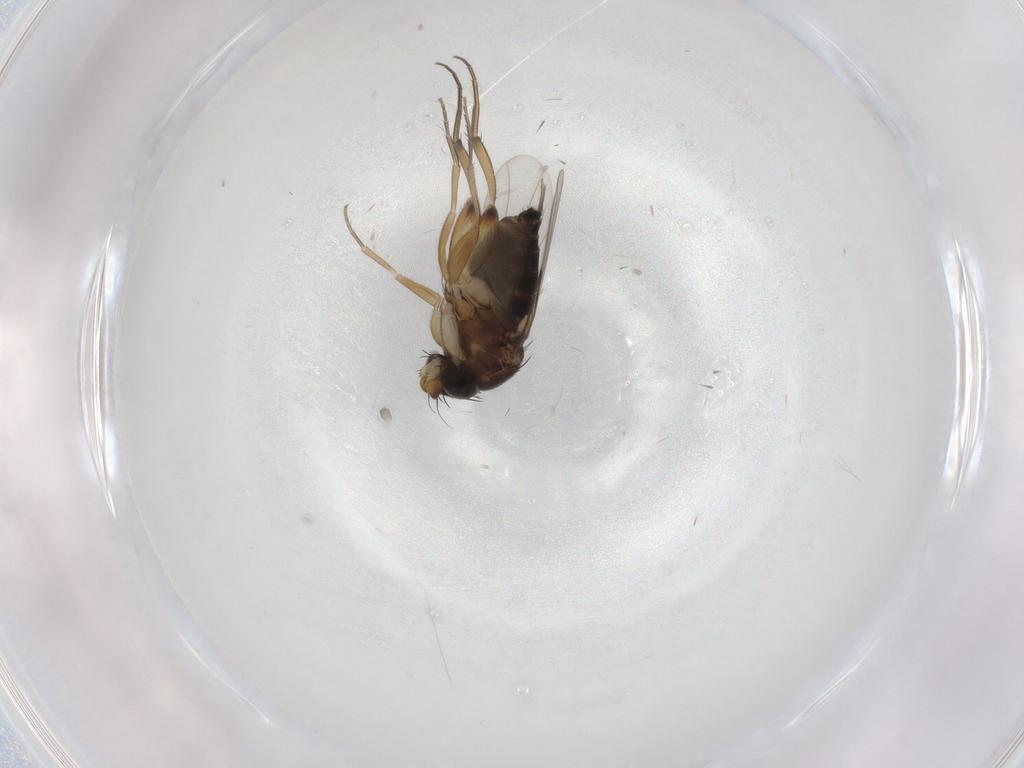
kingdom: Animalia
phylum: Arthropoda
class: Insecta
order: Diptera
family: Phoridae
